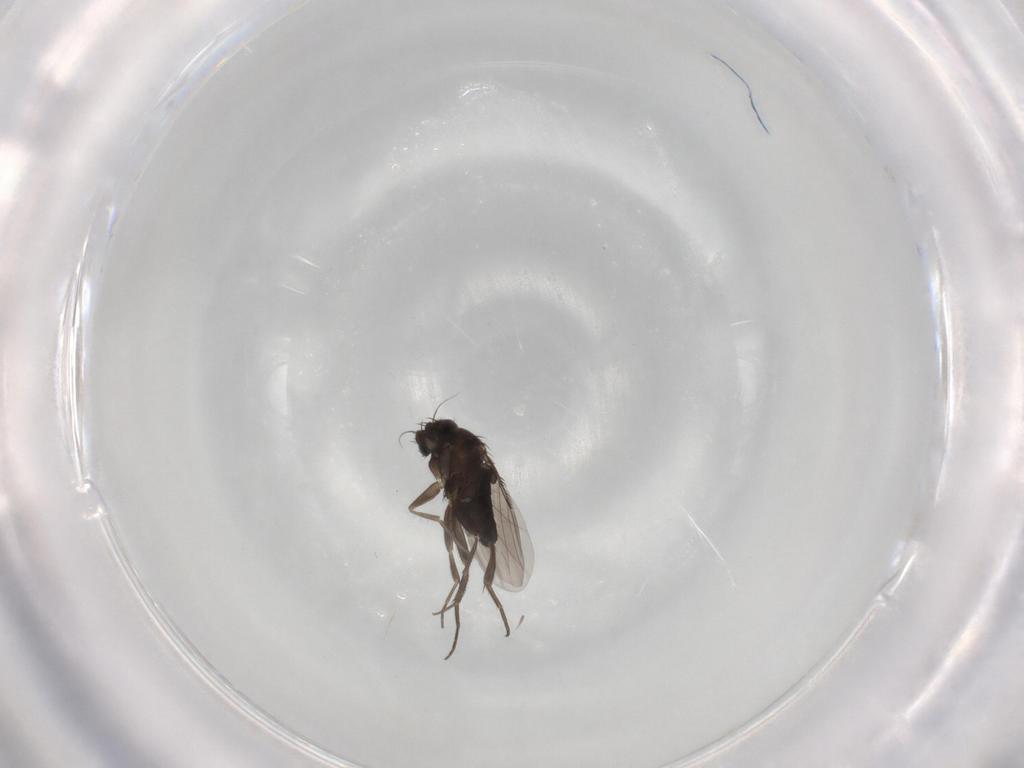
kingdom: Animalia
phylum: Arthropoda
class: Insecta
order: Diptera
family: Phoridae
